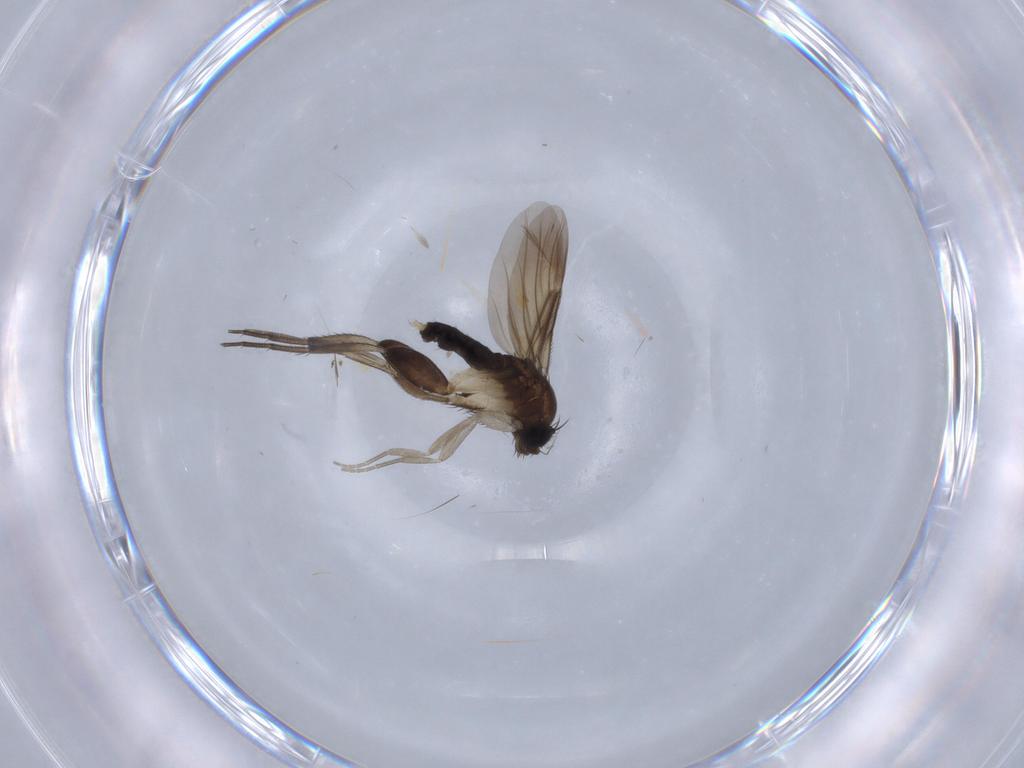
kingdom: Animalia
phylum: Arthropoda
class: Insecta
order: Diptera
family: Phoridae
